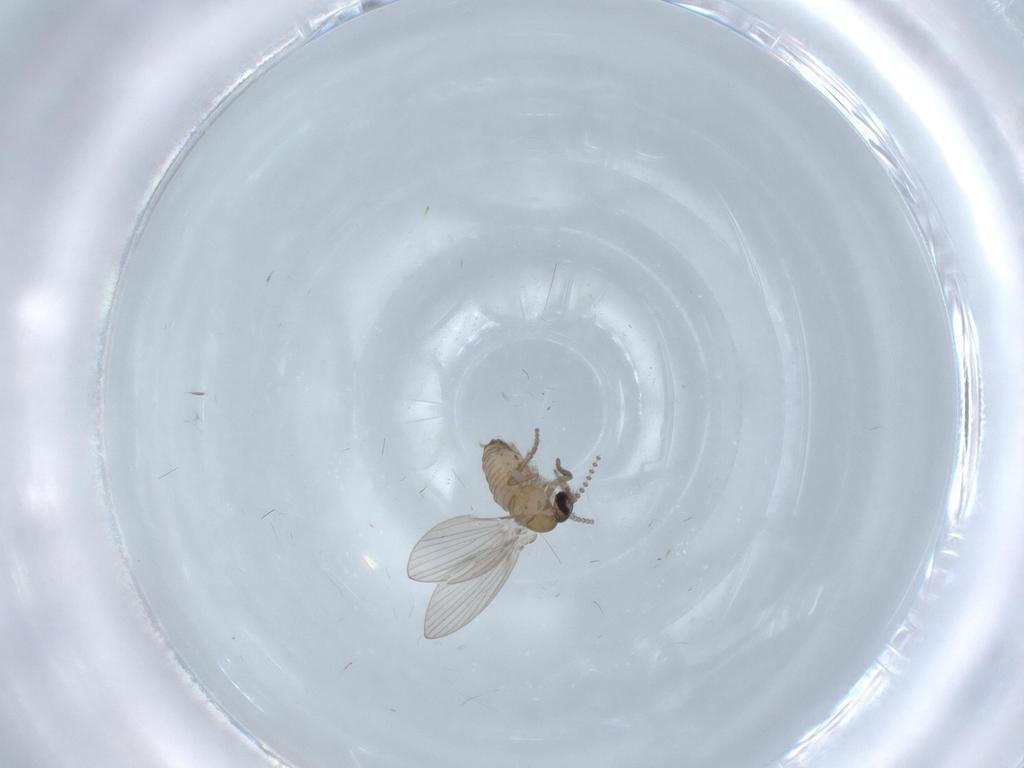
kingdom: Animalia
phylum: Arthropoda
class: Insecta
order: Diptera
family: Psychodidae
